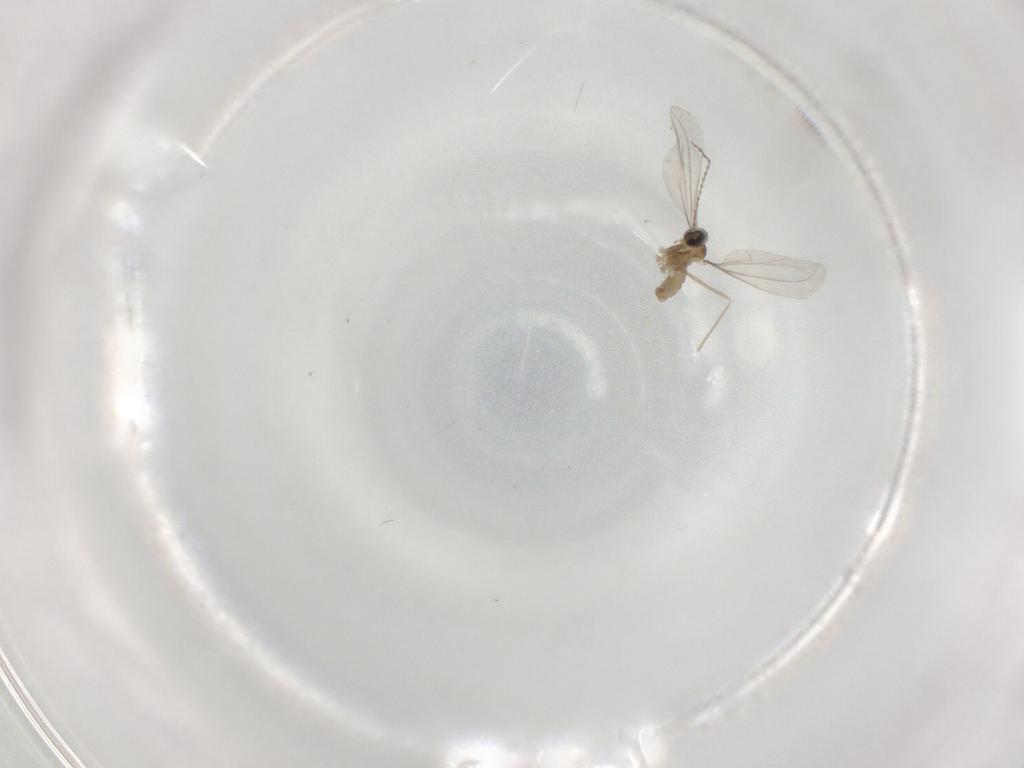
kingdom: Animalia
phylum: Arthropoda
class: Insecta
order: Diptera
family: Cecidomyiidae
